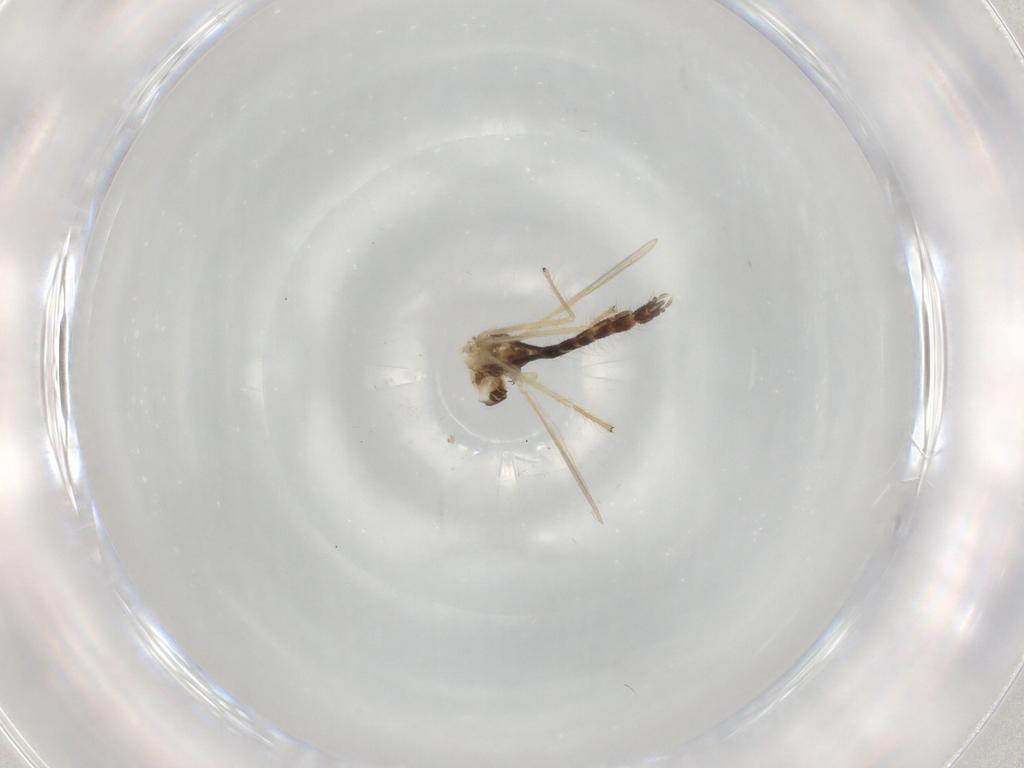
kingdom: Animalia
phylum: Arthropoda
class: Insecta
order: Diptera
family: Chironomidae
